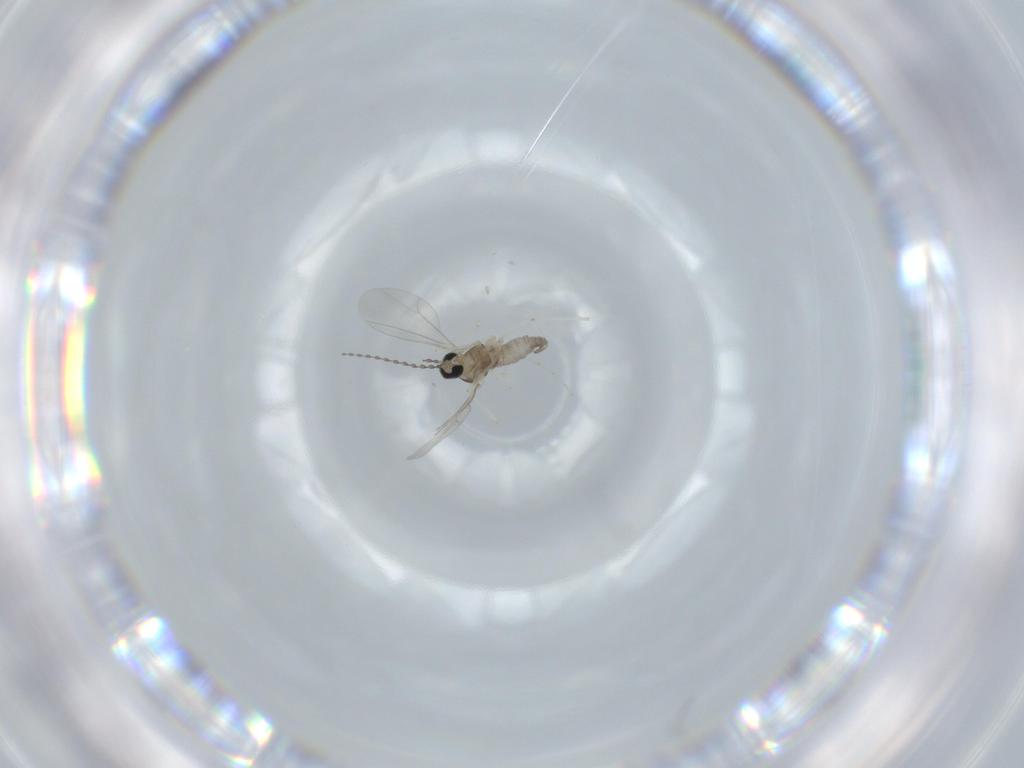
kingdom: Animalia
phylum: Arthropoda
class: Insecta
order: Diptera
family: Cecidomyiidae
